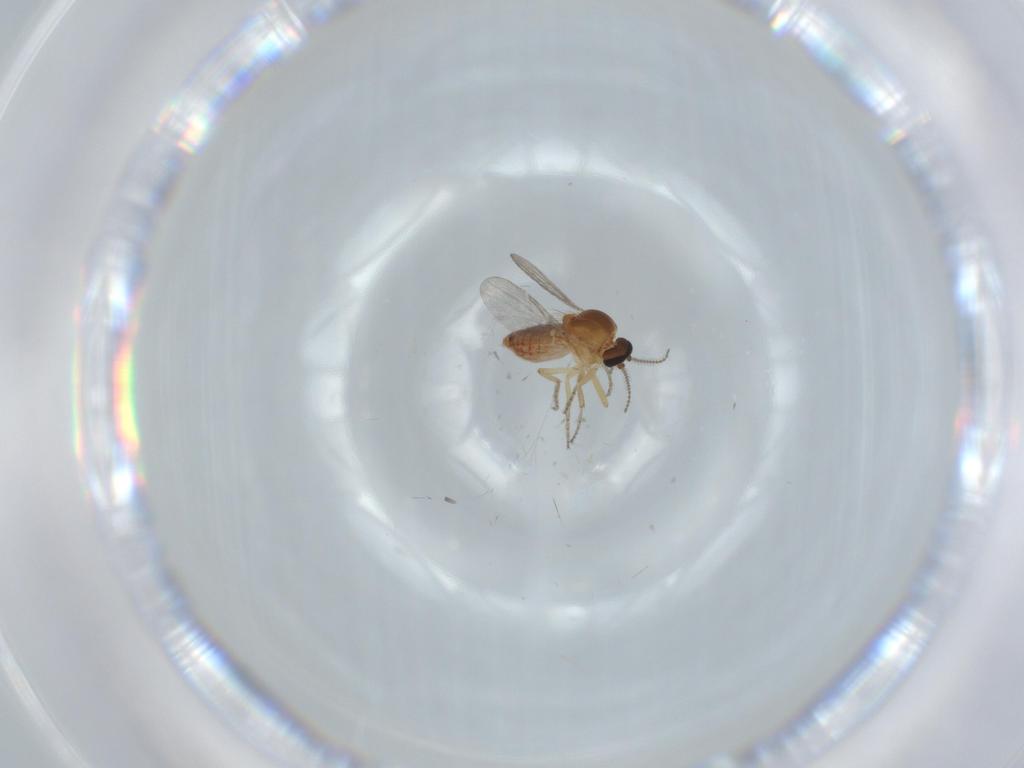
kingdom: Animalia
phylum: Arthropoda
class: Insecta
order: Diptera
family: Ceratopogonidae
